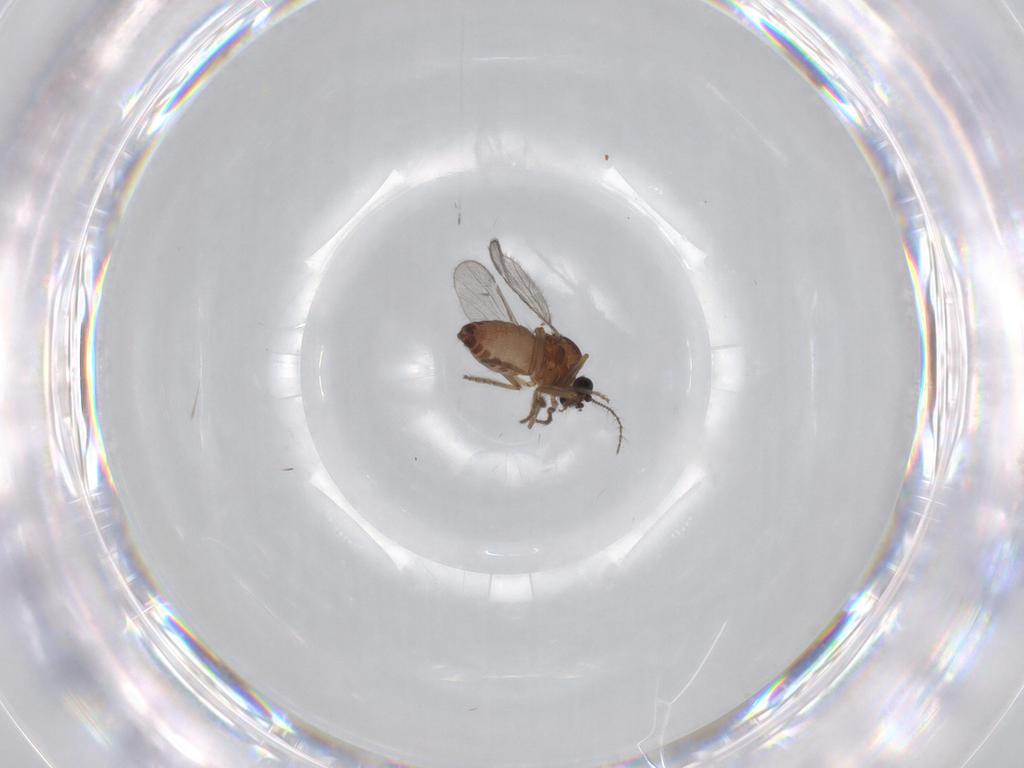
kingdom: Animalia
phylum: Arthropoda
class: Insecta
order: Diptera
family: Ceratopogonidae
